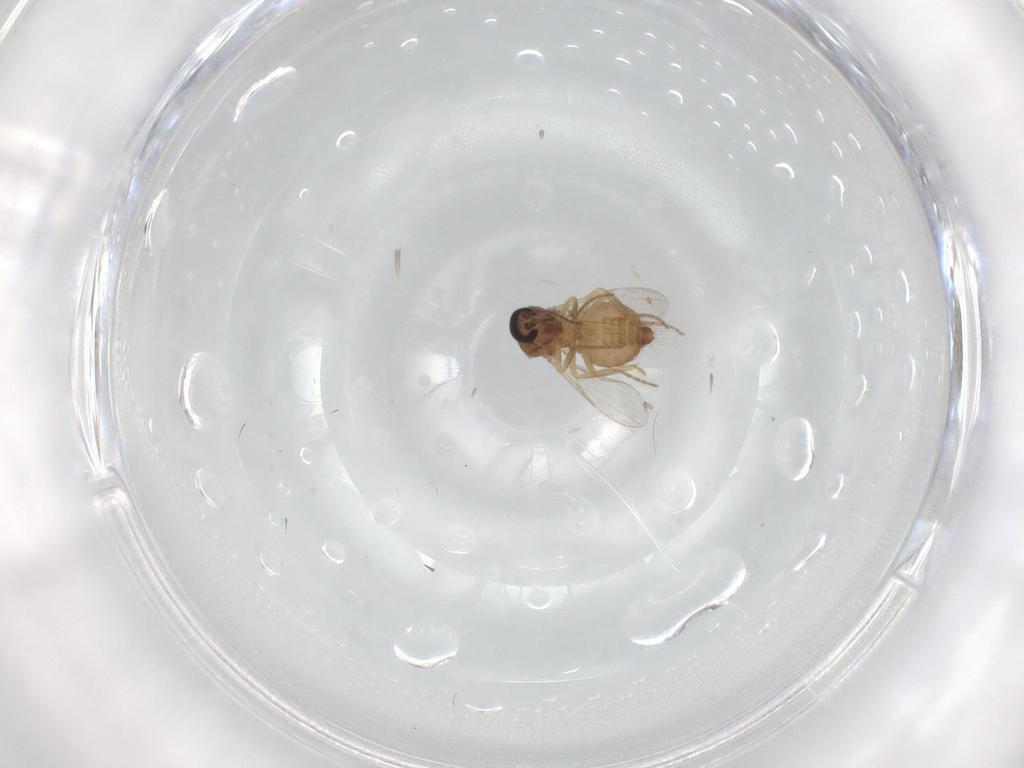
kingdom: Animalia
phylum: Arthropoda
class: Insecta
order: Diptera
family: Ceratopogonidae
